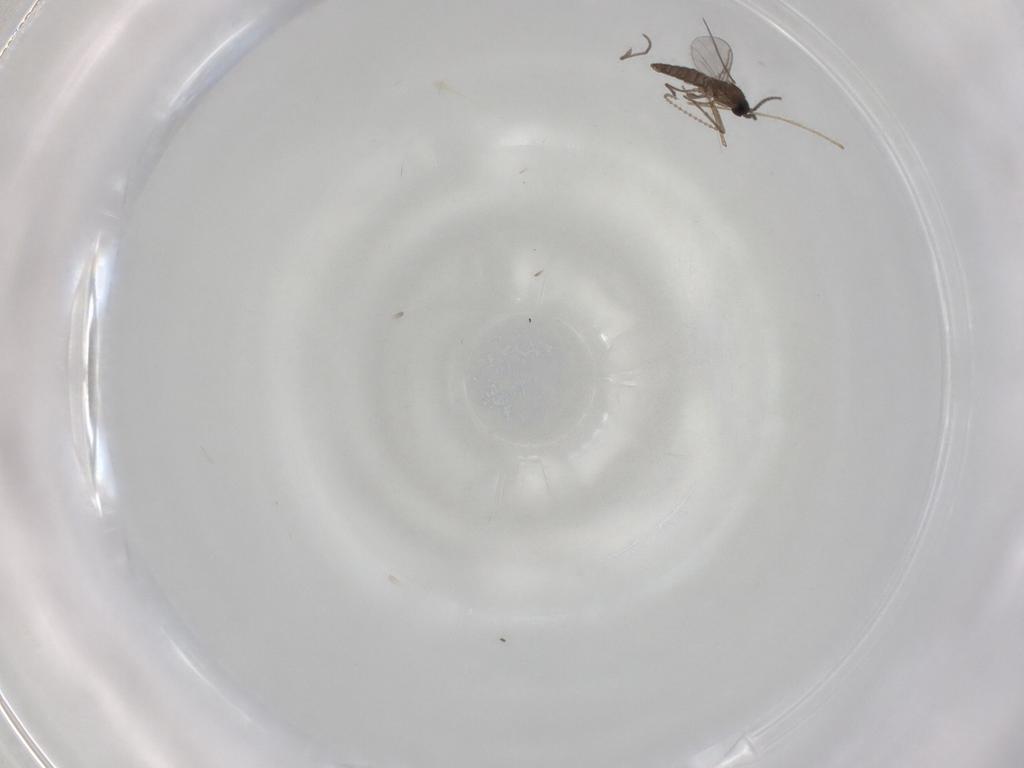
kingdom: Animalia
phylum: Arthropoda
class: Insecta
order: Diptera
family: Sciaridae
